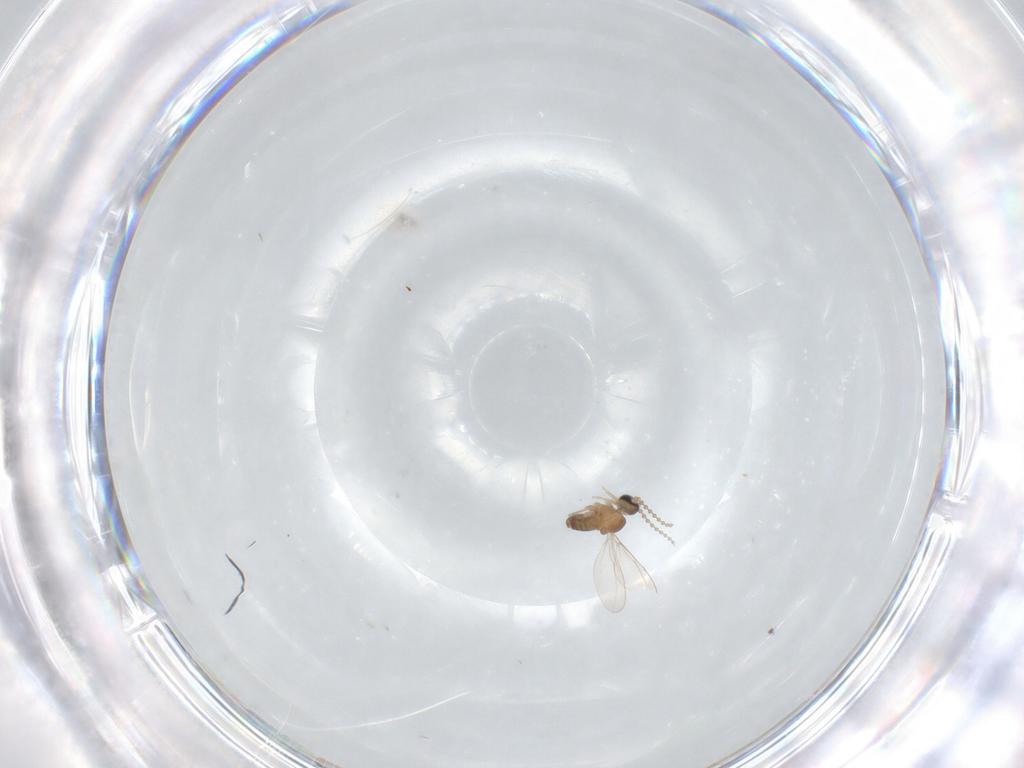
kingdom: Animalia
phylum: Arthropoda
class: Insecta
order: Diptera
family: Cecidomyiidae
